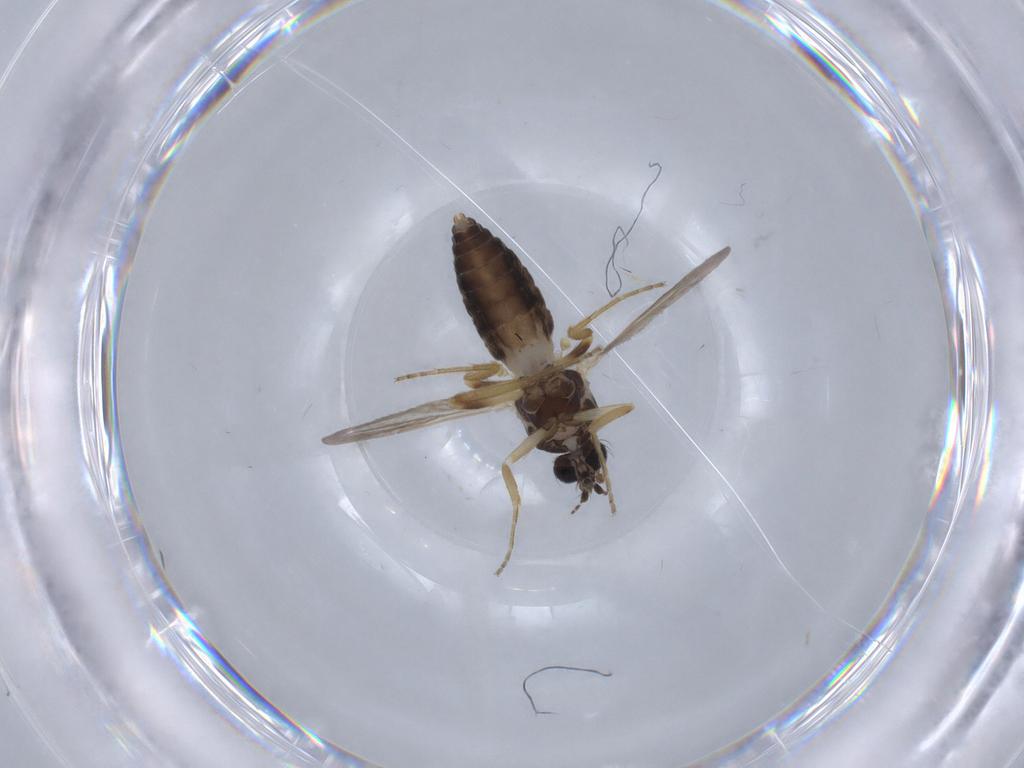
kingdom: Animalia
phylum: Arthropoda
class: Insecta
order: Diptera
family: Ceratopogonidae
